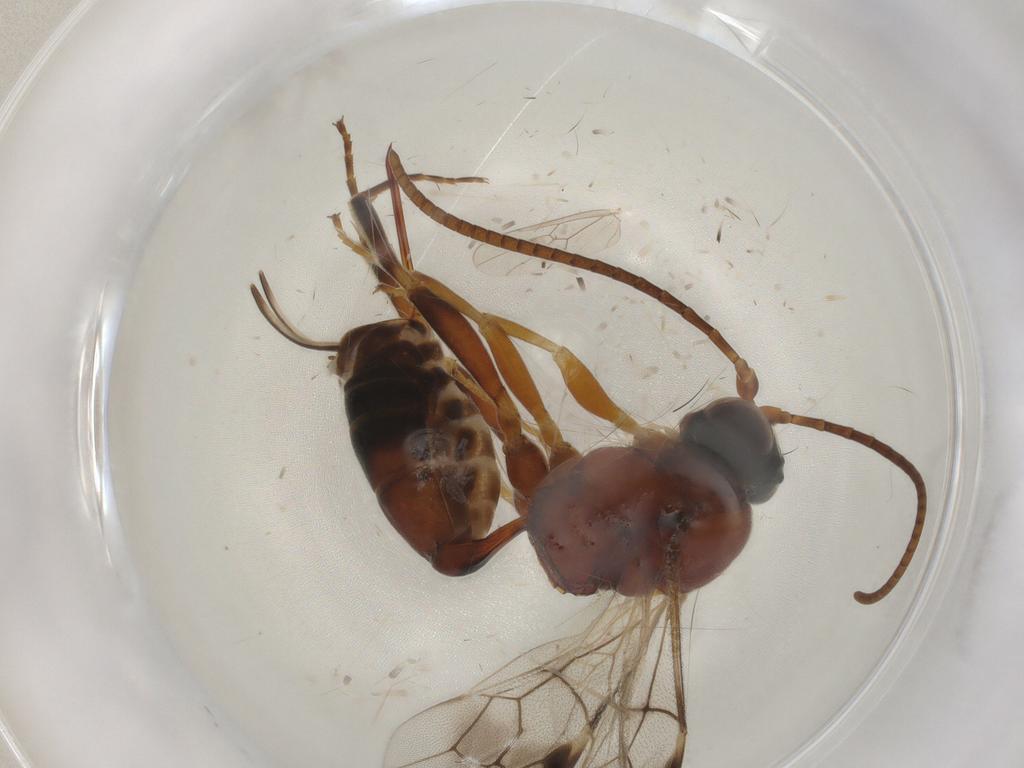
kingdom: Animalia
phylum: Arthropoda
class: Insecta
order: Hymenoptera
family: Ichneumonidae
